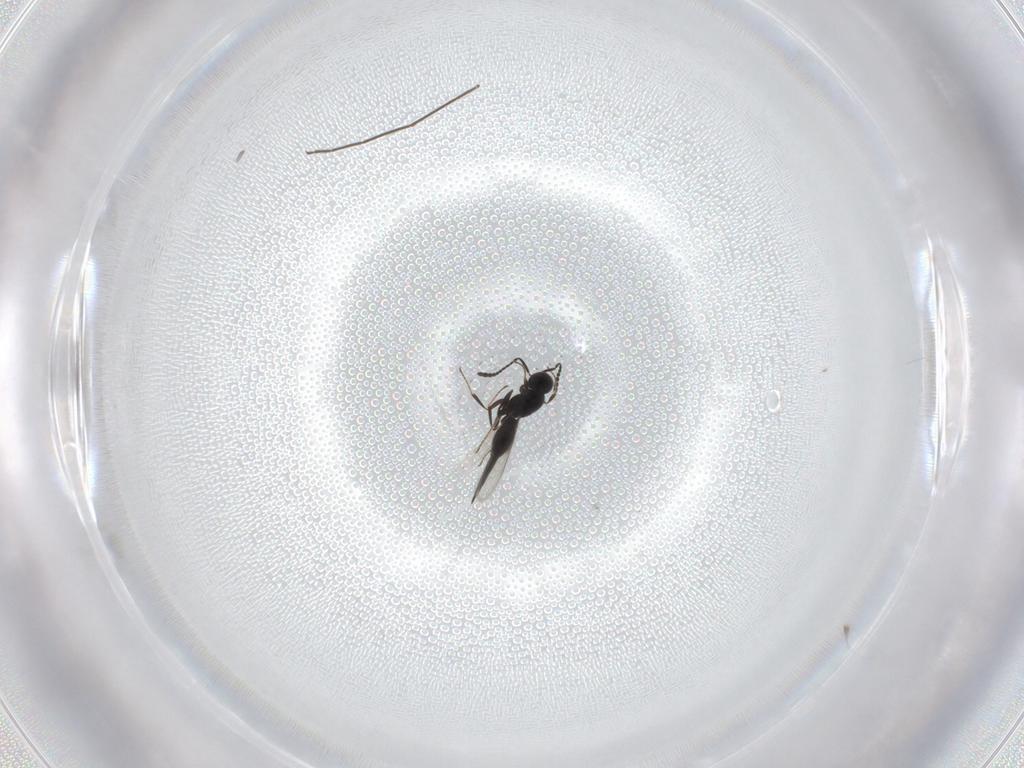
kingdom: Animalia
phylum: Arthropoda
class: Insecta
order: Hymenoptera
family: Scelionidae
